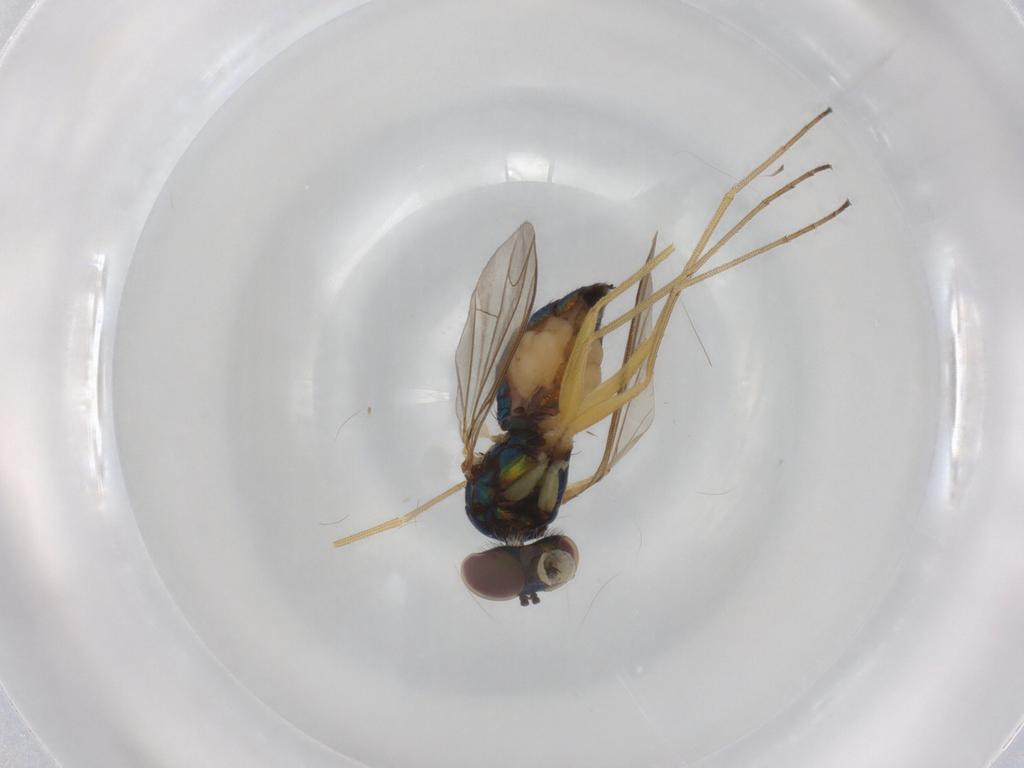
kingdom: Animalia
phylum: Arthropoda
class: Insecta
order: Diptera
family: Dolichopodidae
